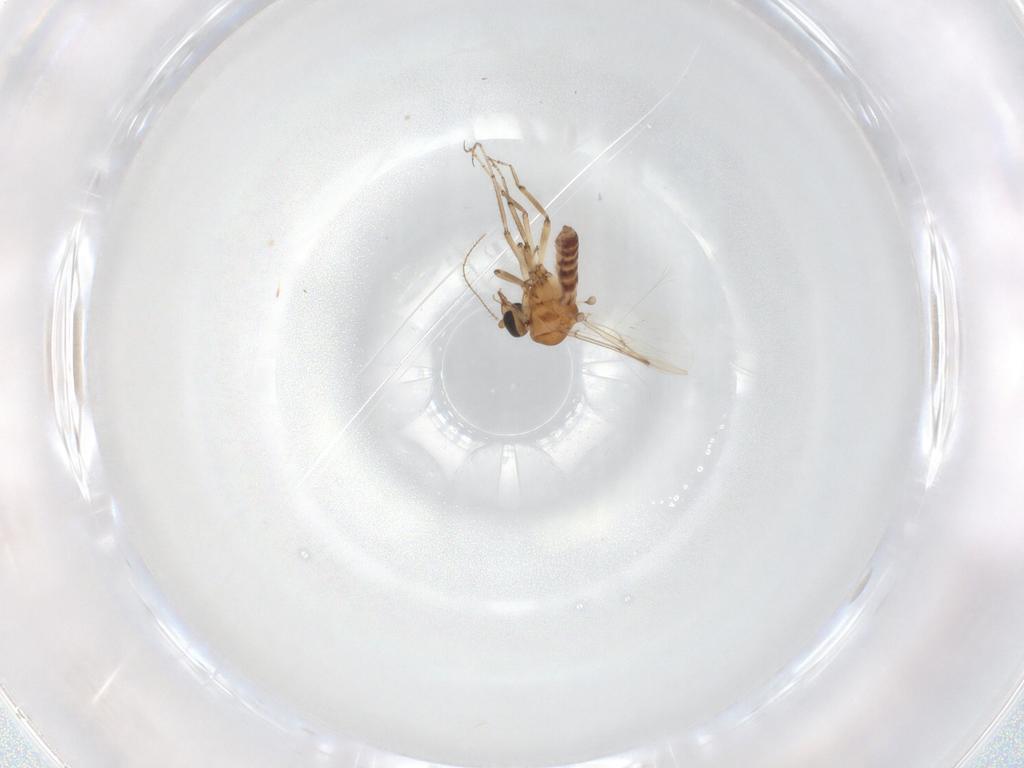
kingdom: Animalia
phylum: Arthropoda
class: Insecta
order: Diptera
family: Ceratopogonidae
